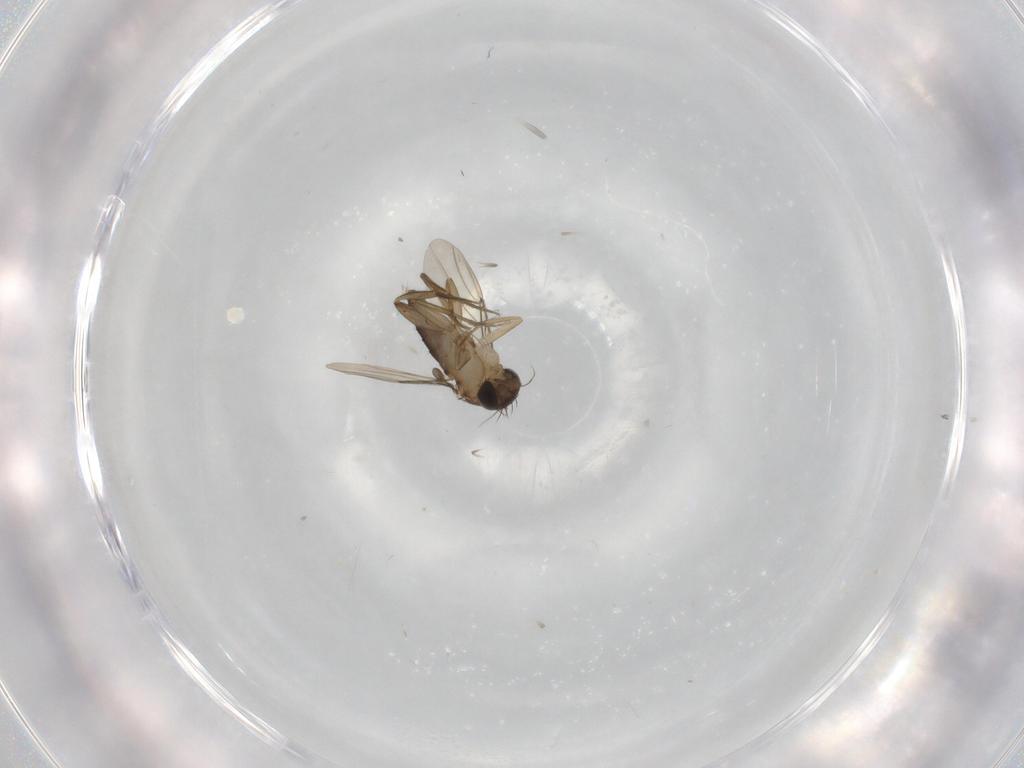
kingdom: Animalia
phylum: Arthropoda
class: Insecta
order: Diptera
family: Phoridae
